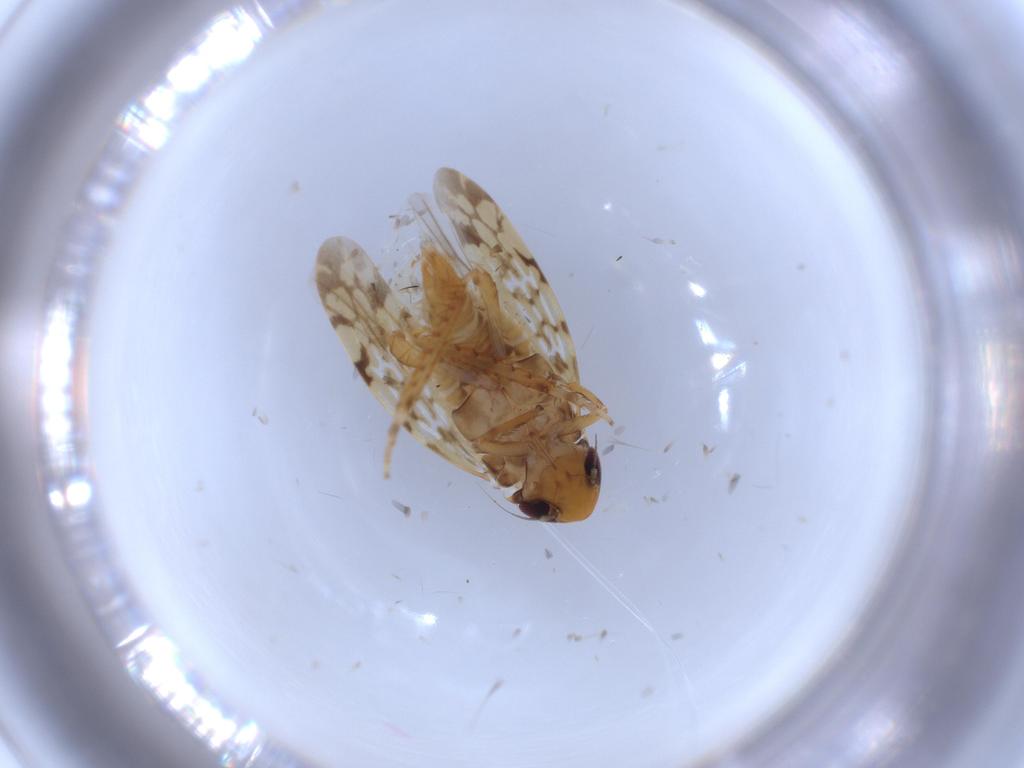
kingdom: Animalia
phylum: Arthropoda
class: Insecta
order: Hemiptera
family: Cicadellidae
